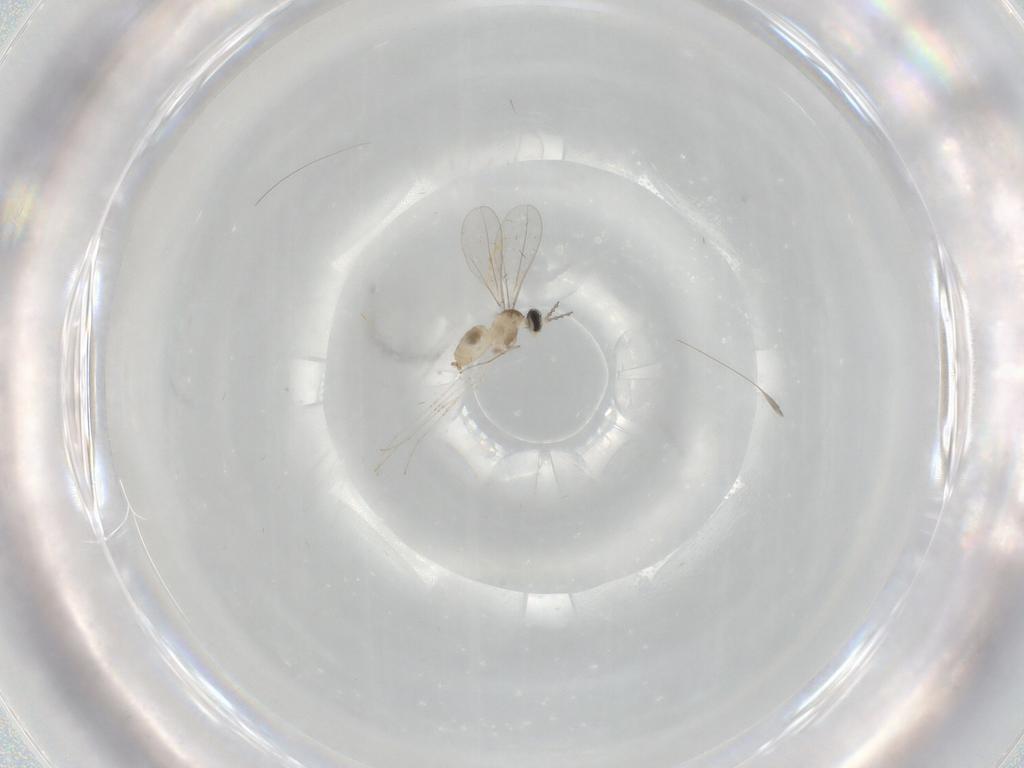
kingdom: Animalia
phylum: Arthropoda
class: Insecta
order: Diptera
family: Cecidomyiidae
